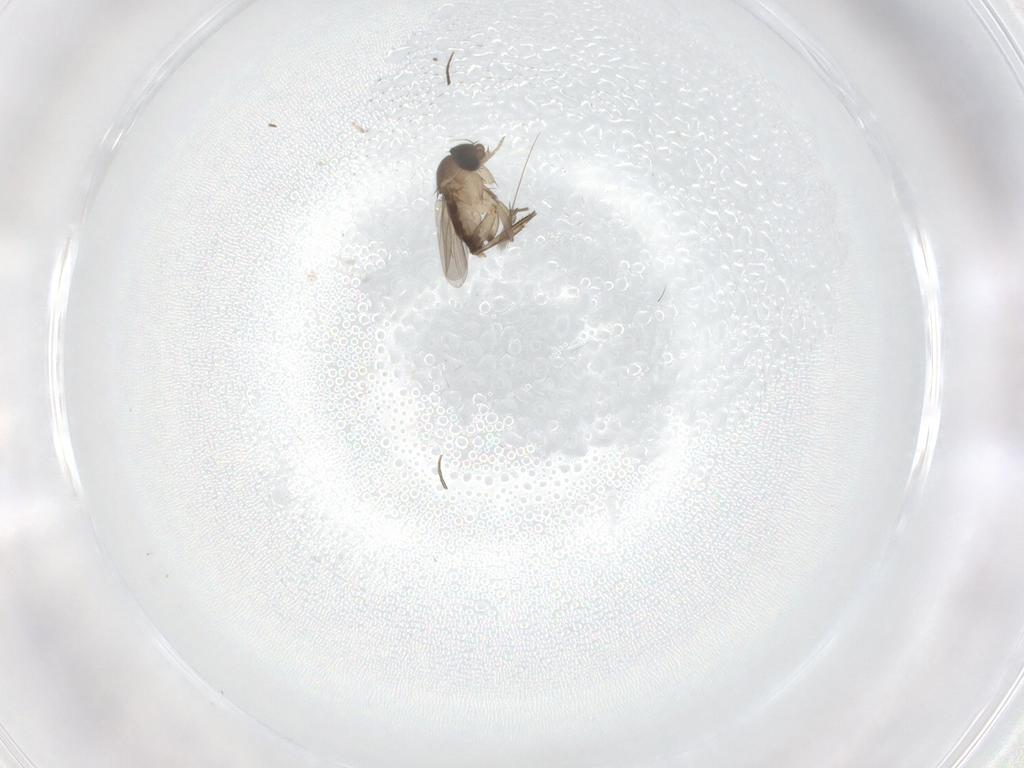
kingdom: Animalia
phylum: Arthropoda
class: Insecta
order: Diptera
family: Phoridae
